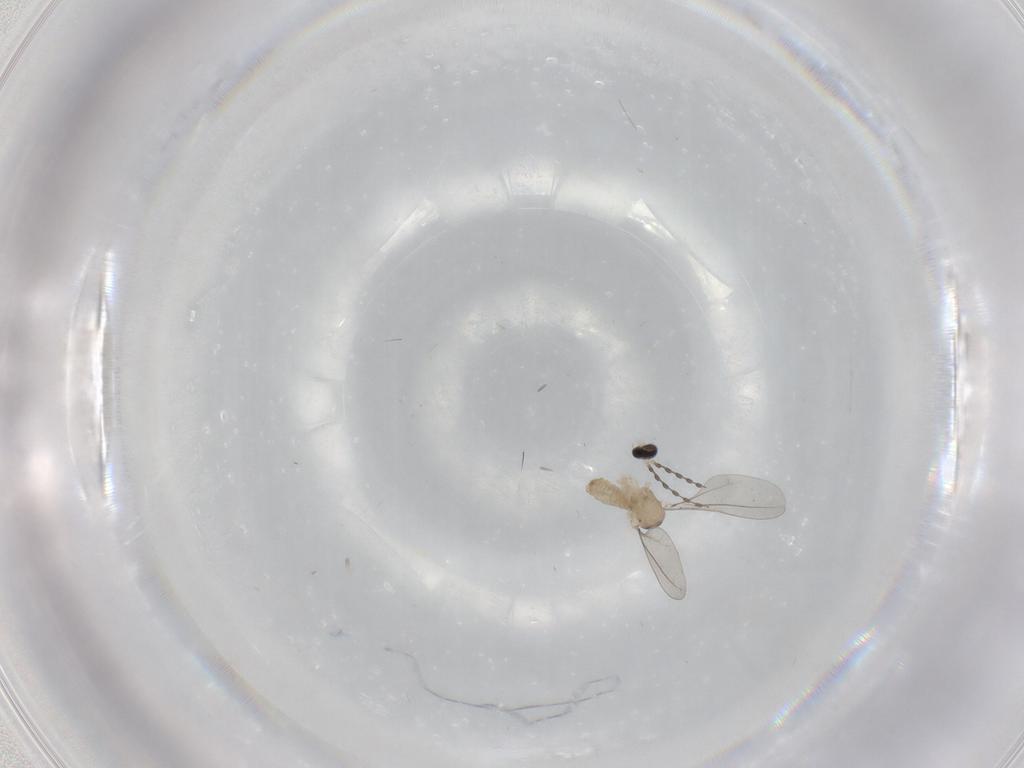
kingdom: Animalia
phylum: Arthropoda
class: Insecta
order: Diptera
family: Cecidomyiidae
